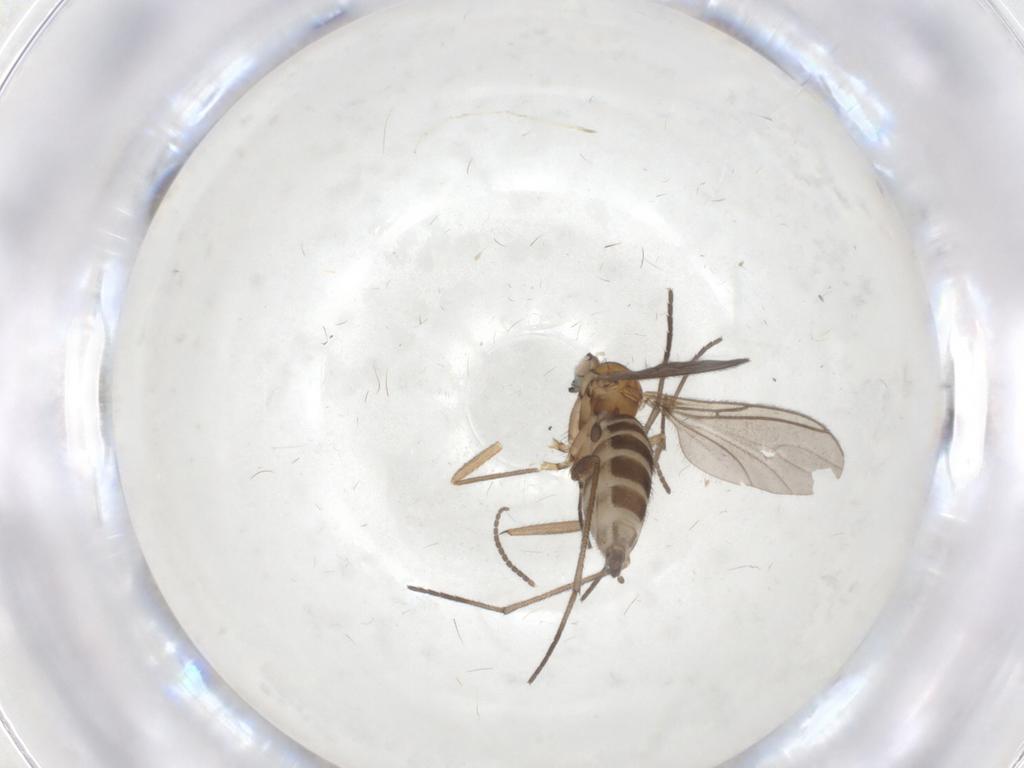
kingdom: Animalia
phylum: Arthropoda
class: Insecta
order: Diptera
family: Sciaridae
